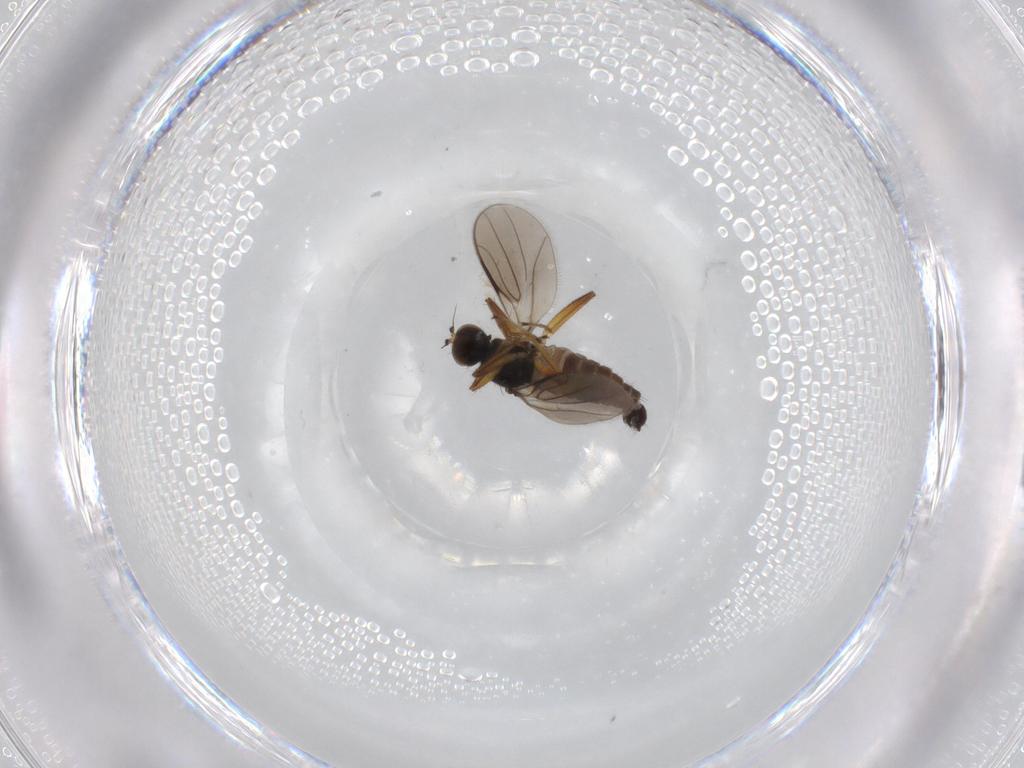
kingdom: Animalia
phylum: Arthropoda
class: Insecta
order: Diptera
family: Hybotidae
